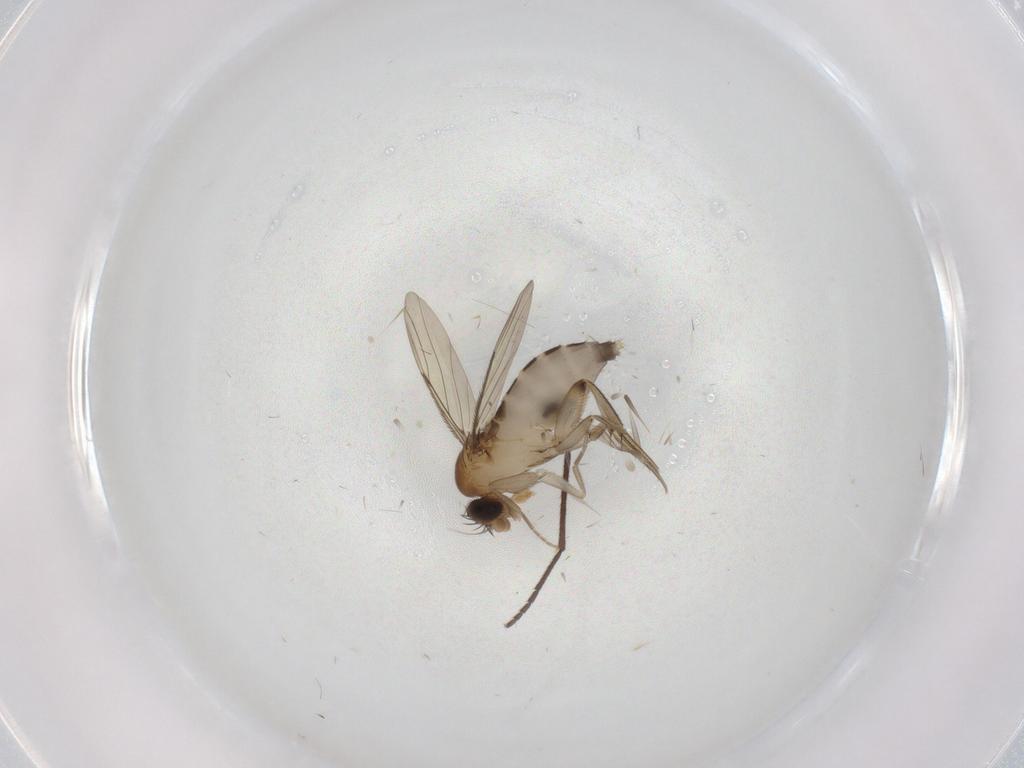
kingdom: Animalia
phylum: Arthropoda
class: Insecta
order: Diptera
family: Phoridae
